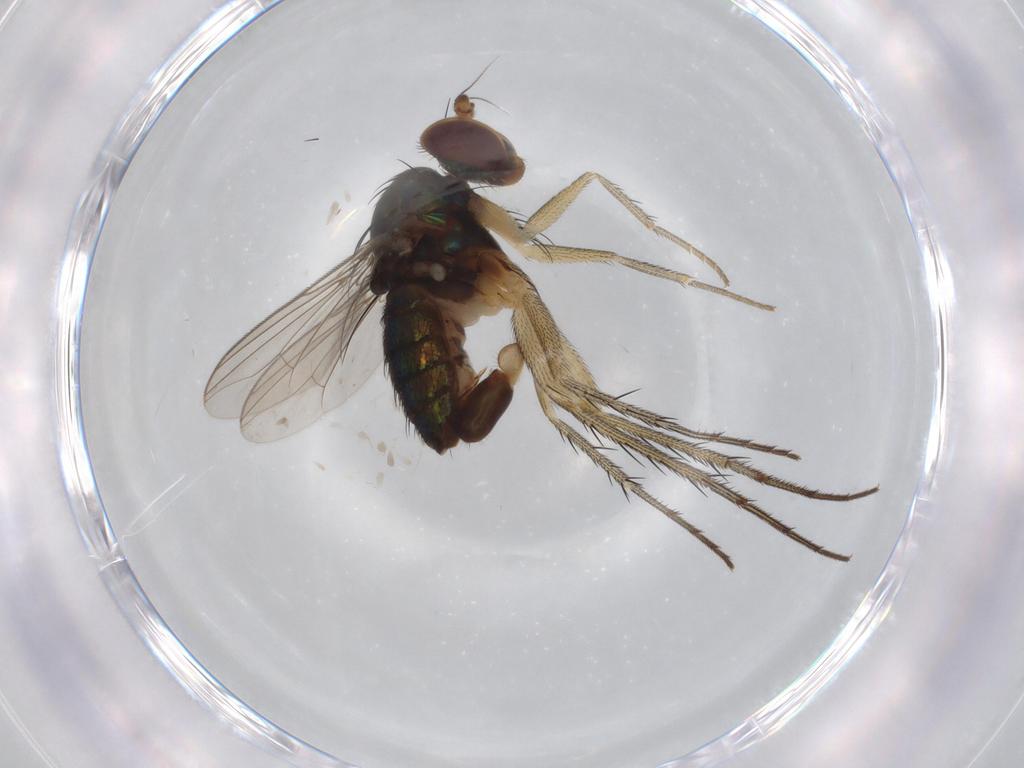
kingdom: Animalia
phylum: Arthropoda
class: Insecta
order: Diptera
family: Dolichopodidae
